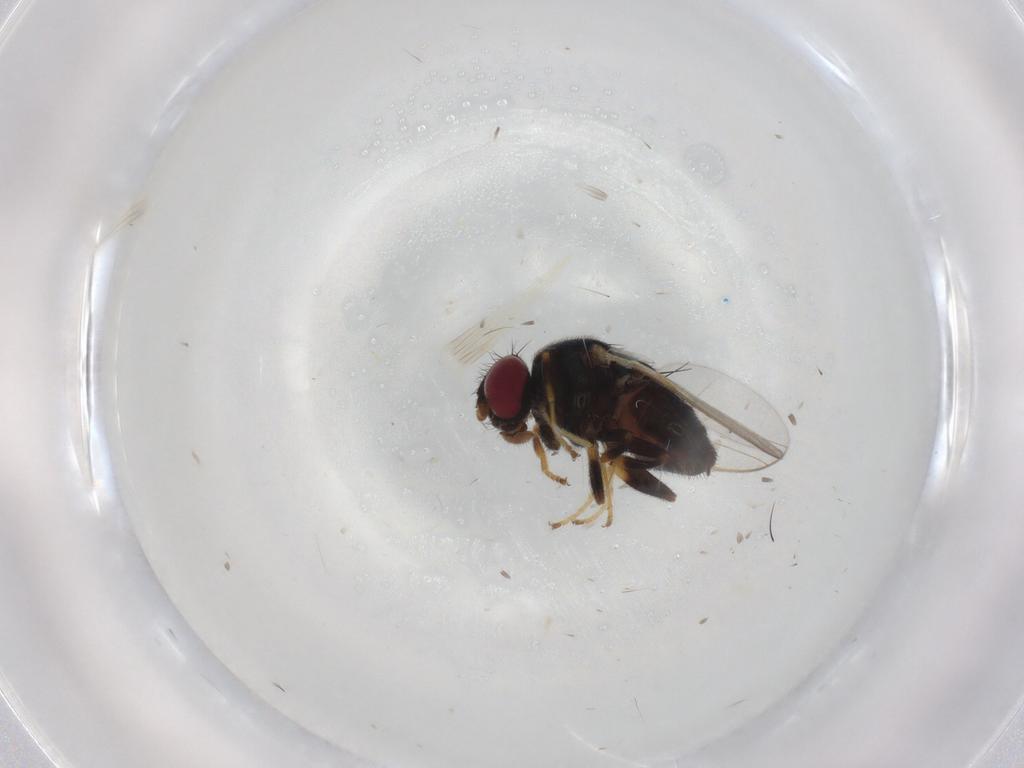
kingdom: Animalia
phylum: Arthropoda
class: Insecta
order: Diptera
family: Chloropidae
